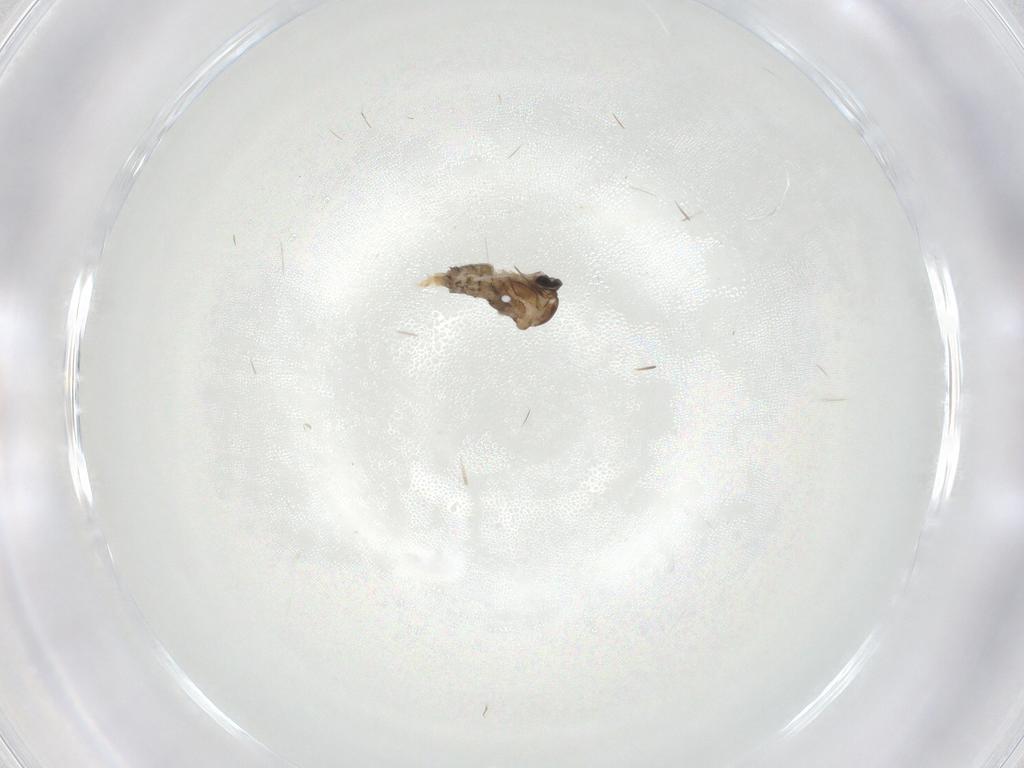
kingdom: Animalia
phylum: Arthropoda
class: Insecta
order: Diptera
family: Cecidomyiidae
